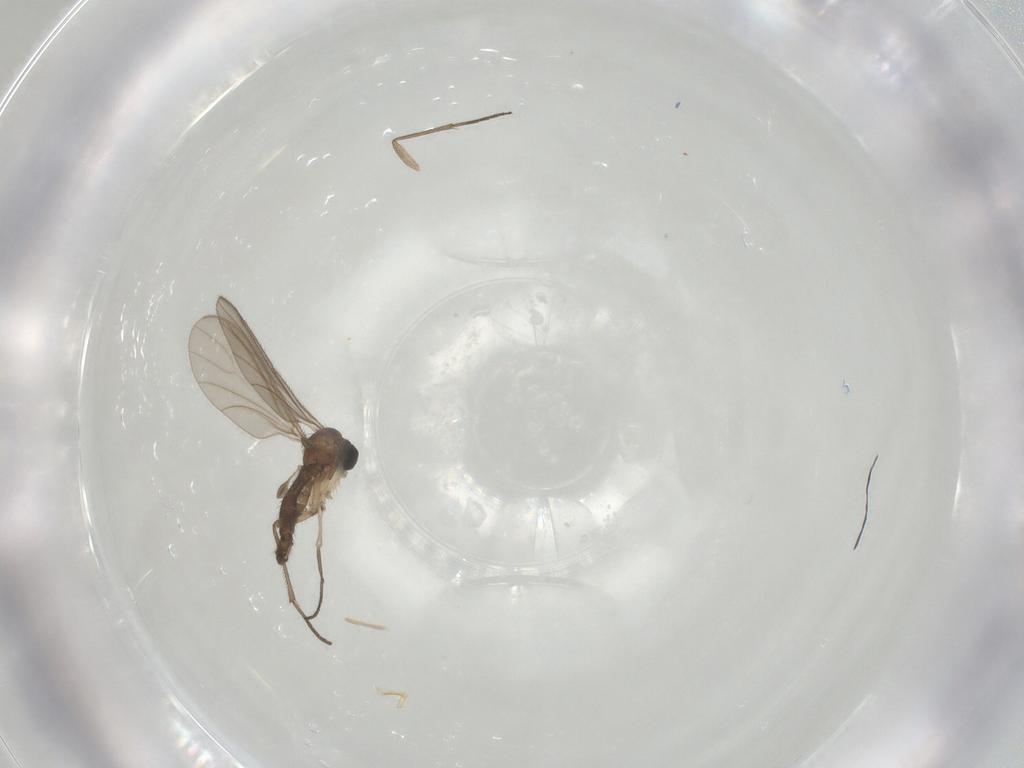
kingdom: Animalia
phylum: Arthropoda
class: Insecta
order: Diptera
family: Sciaridae
